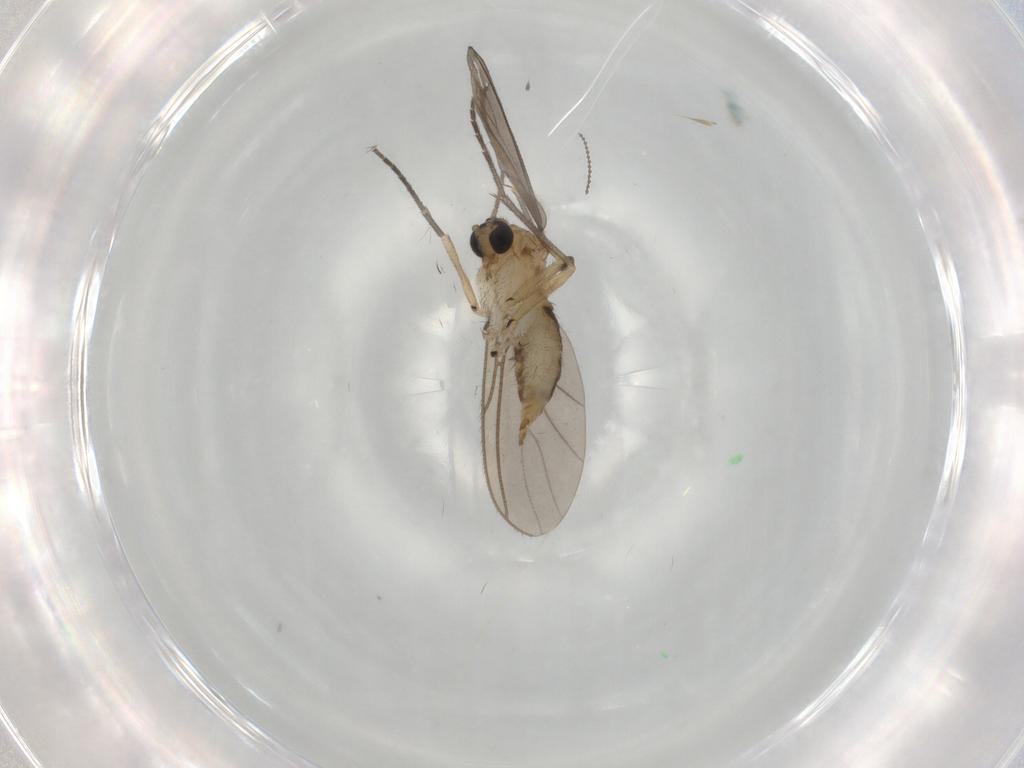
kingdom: Animalia
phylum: Arthropoda
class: Insecta
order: Diptera
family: Sciaridae
